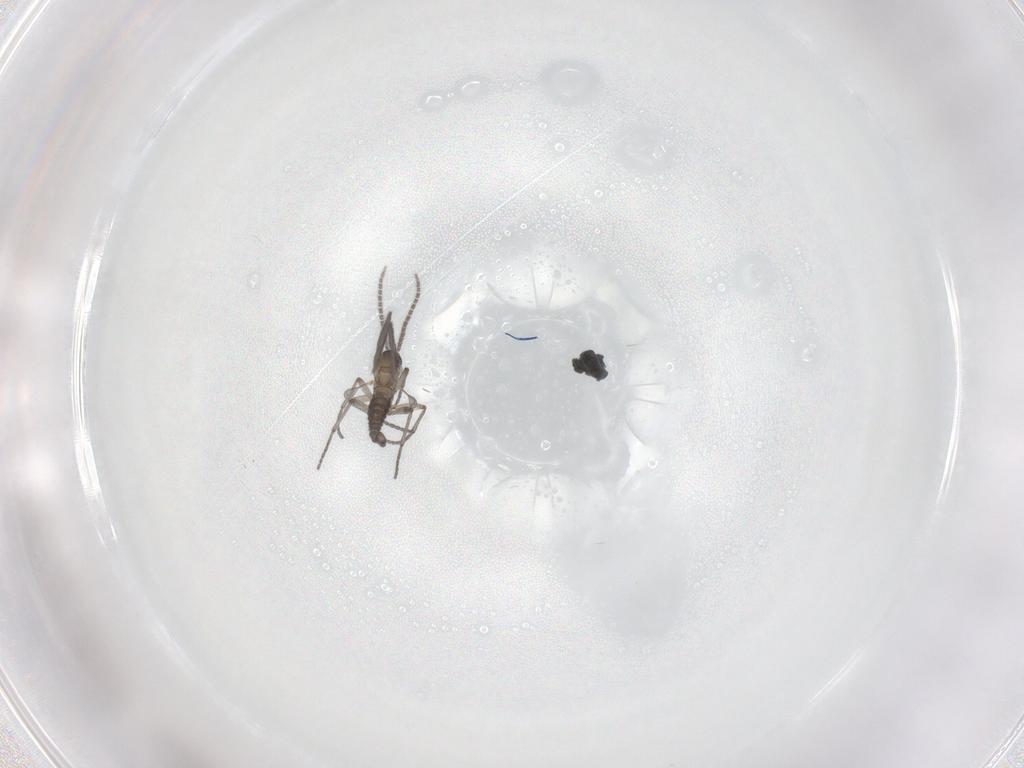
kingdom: Animalia
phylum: Arthropoda
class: Insecta
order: Diptera
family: Sciaridae
